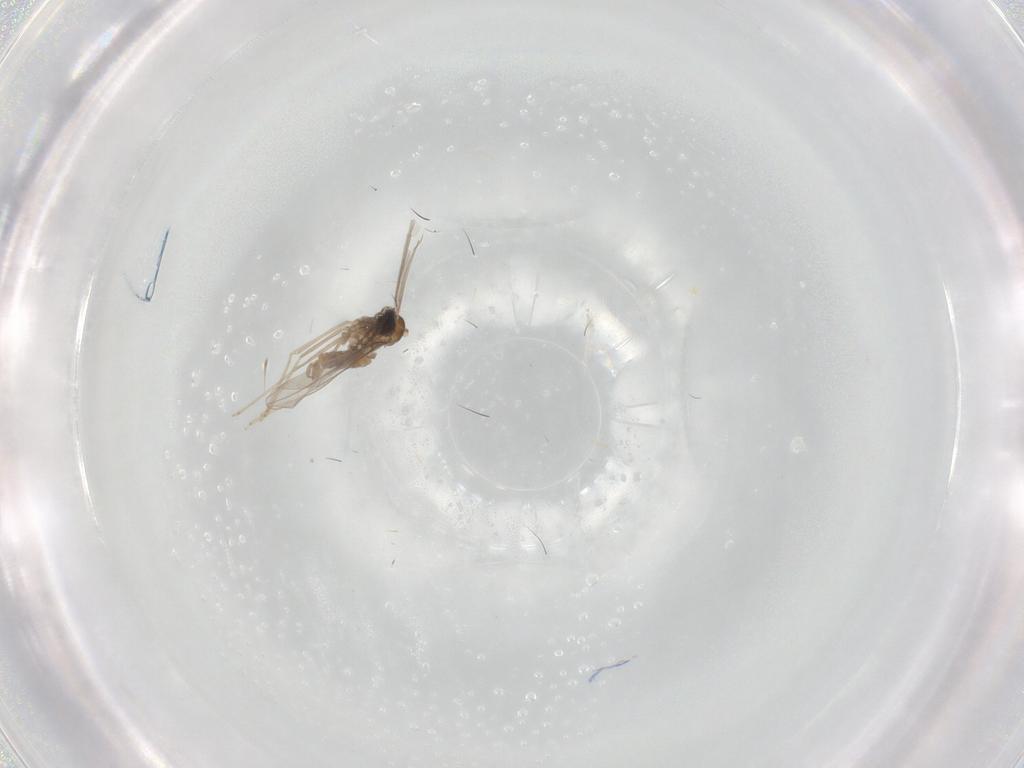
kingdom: Animalia
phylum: Arthropoda
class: Insecta
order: Diptera
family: Cecidomyiidae
